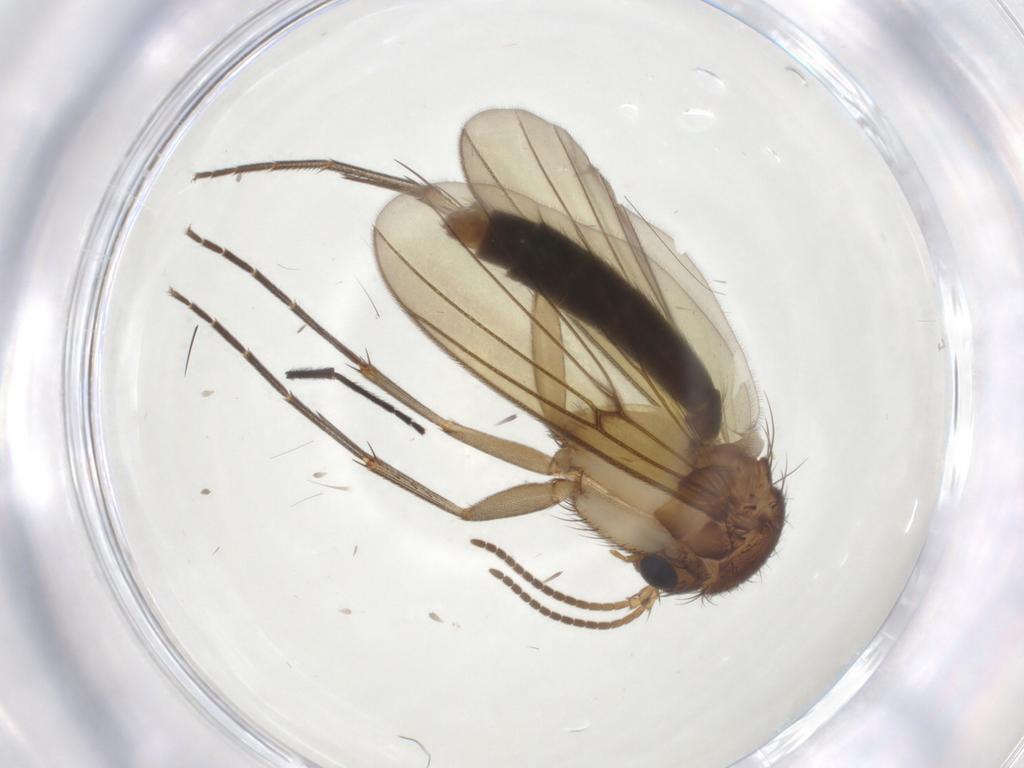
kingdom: Animalia
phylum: Arthropoda
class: Insecta
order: Diptera
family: Mycetophilidae
